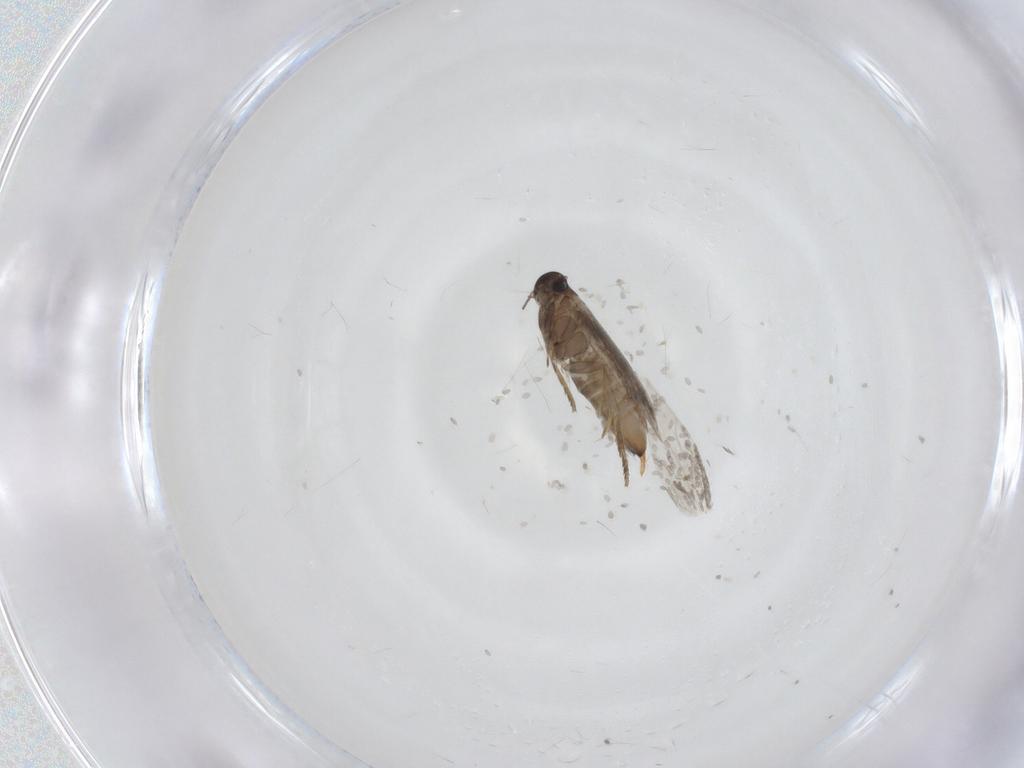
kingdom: Animalia
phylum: Arthropoda
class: Insecta
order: Lepidoptera
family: Heliozelidae
